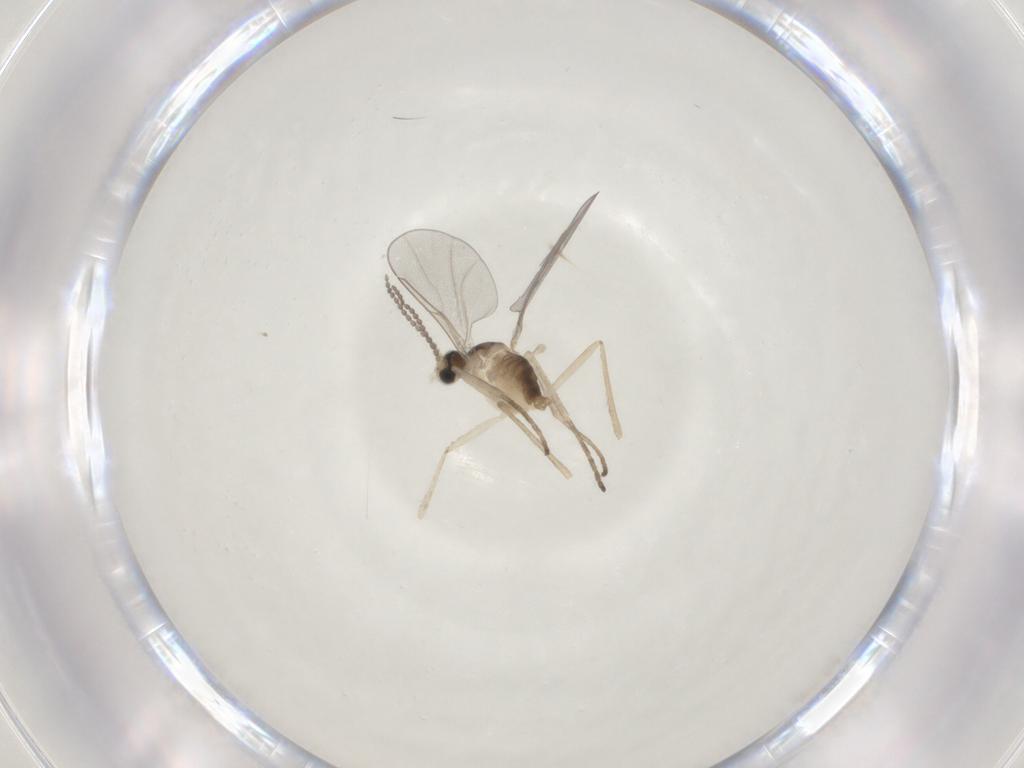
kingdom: Animalia
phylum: Arthropoda
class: Insecta
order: Diptera
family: Cecidomyiidae
